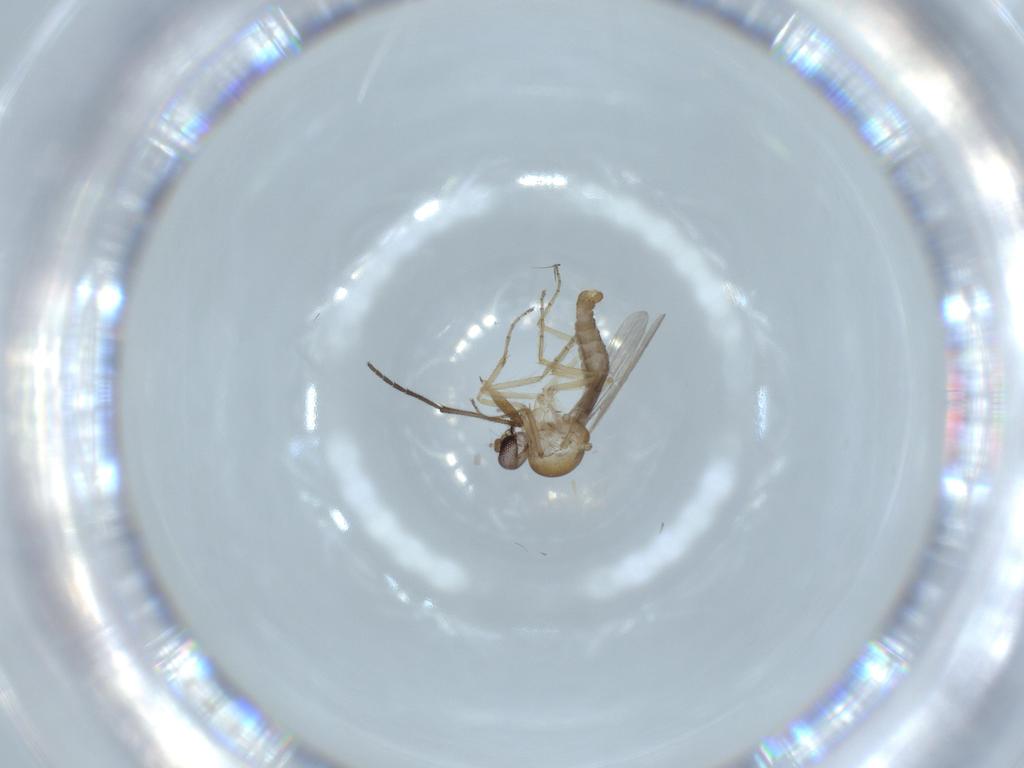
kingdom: Animalia
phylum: Arthropoda
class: Insecta
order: Diptera
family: Ceratopogonidae
